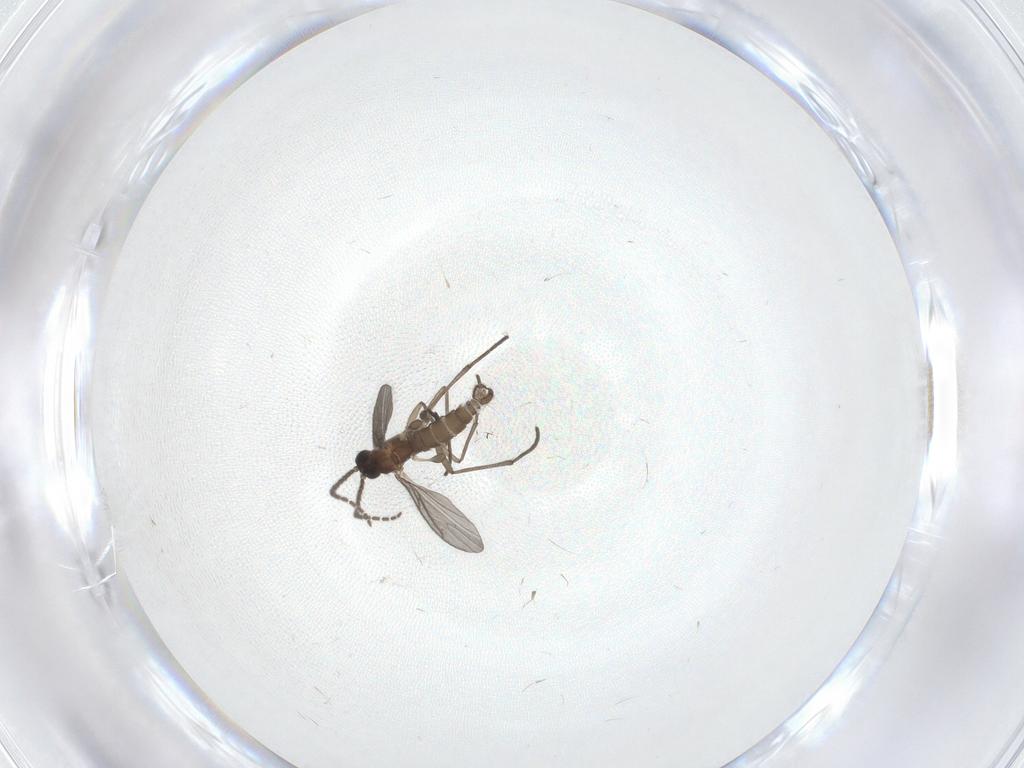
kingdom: Animalia
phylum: Arthropoda
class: Insecta
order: Diptera
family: Sciaridae
